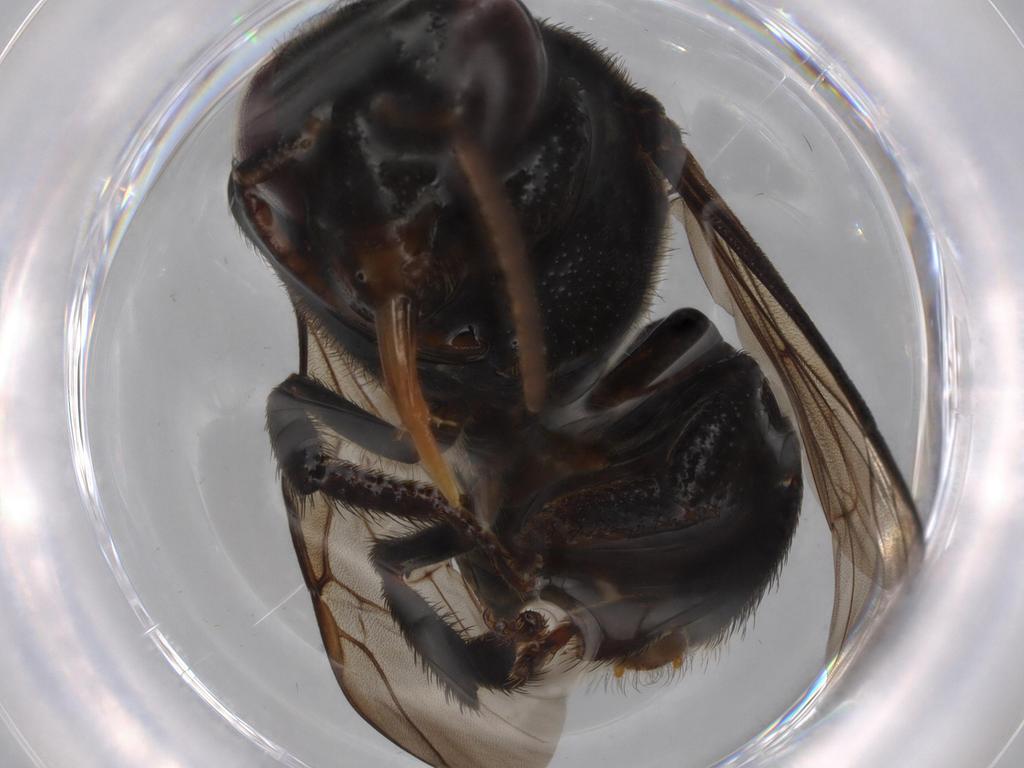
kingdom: Animalia
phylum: Arthropoda
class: Insecta
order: Hymenoptera
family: Apidae
